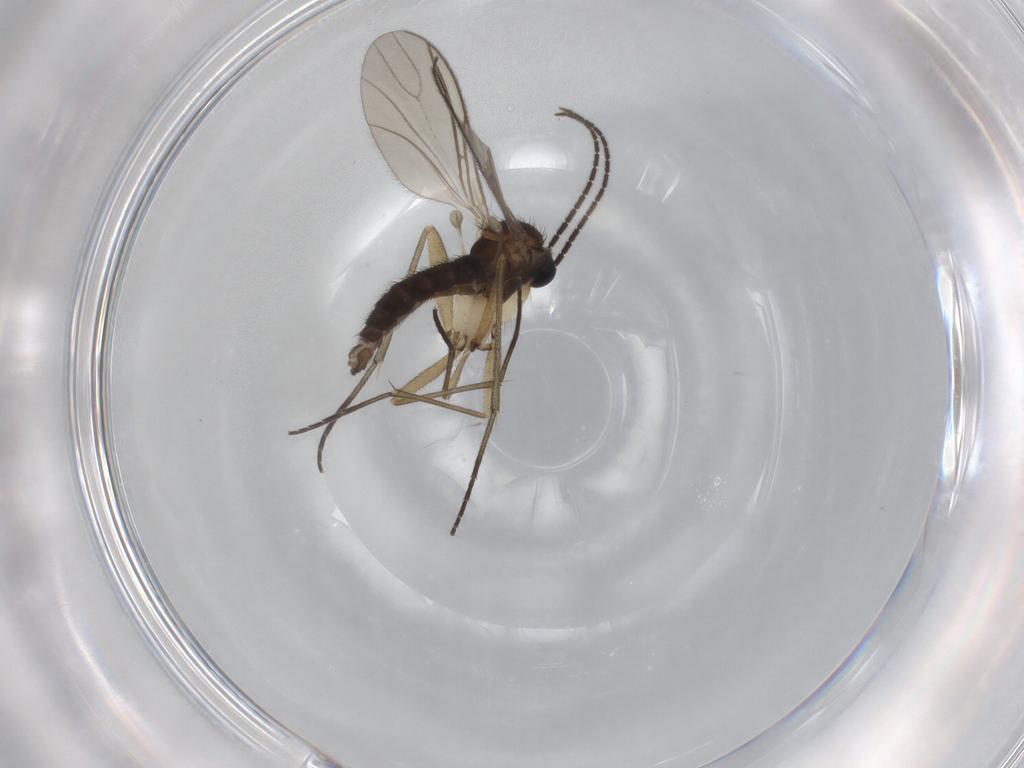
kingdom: Animalia
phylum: Arthropoda
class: Insecta
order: Diptera
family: Sciaridae
